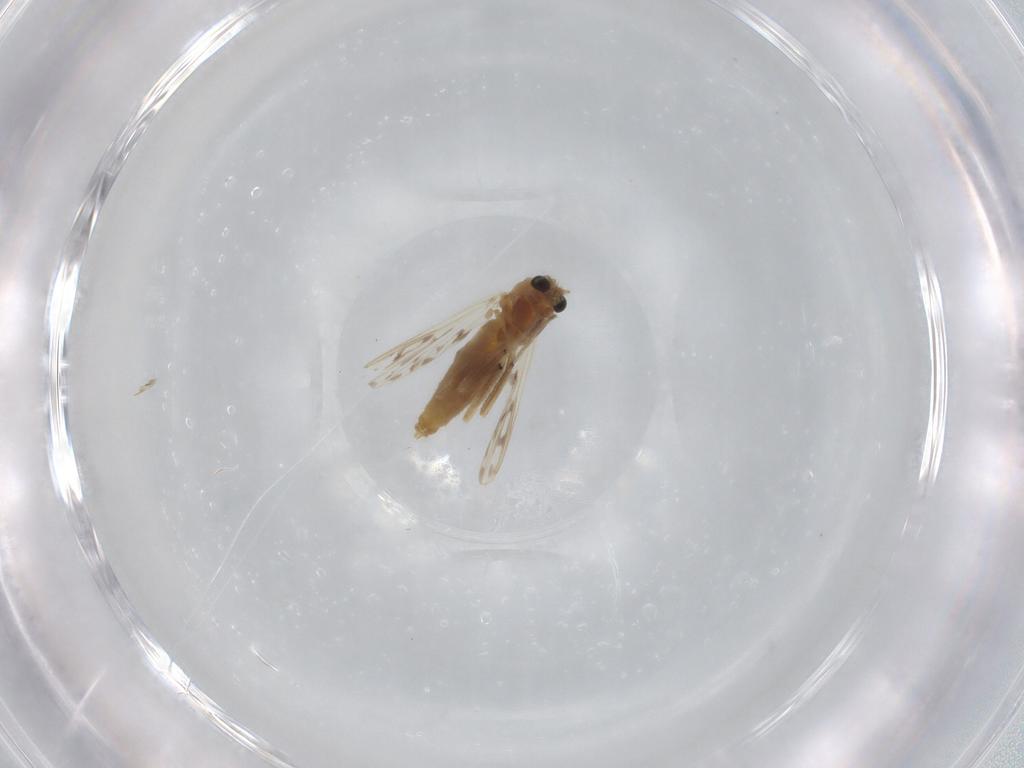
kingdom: Animalia
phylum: Arthropoda
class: Insecta
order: Diptera
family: Chironomidae
